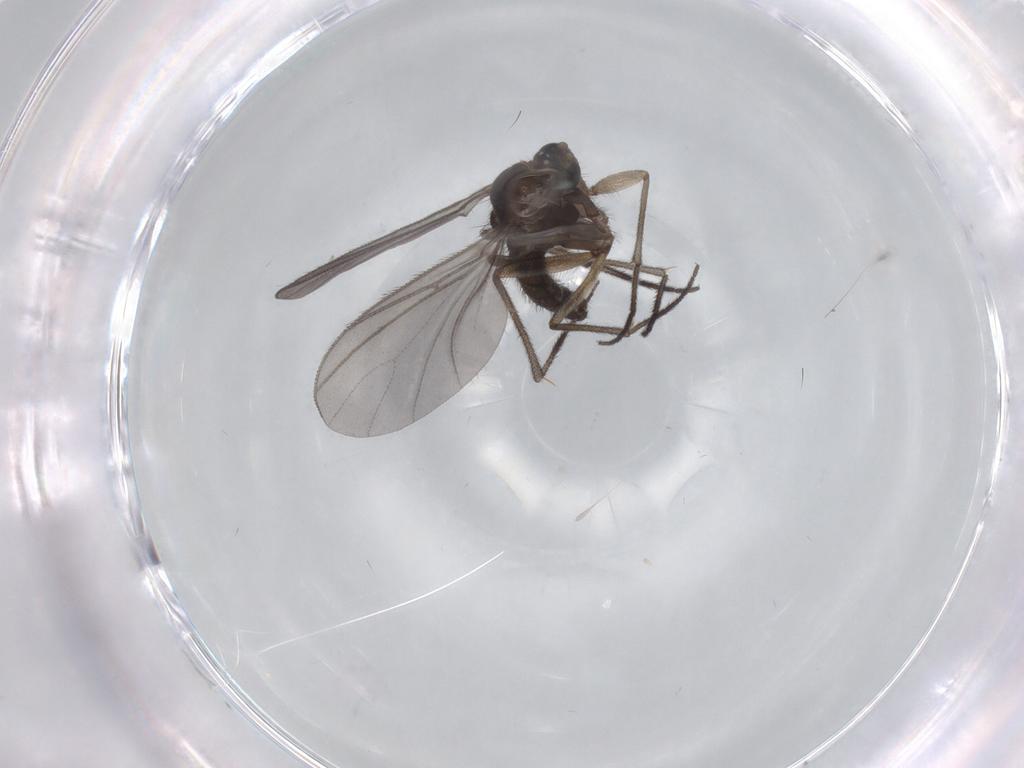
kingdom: Animalia
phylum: Arthropoda
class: Insecta
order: Diptera
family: Sciaridae
